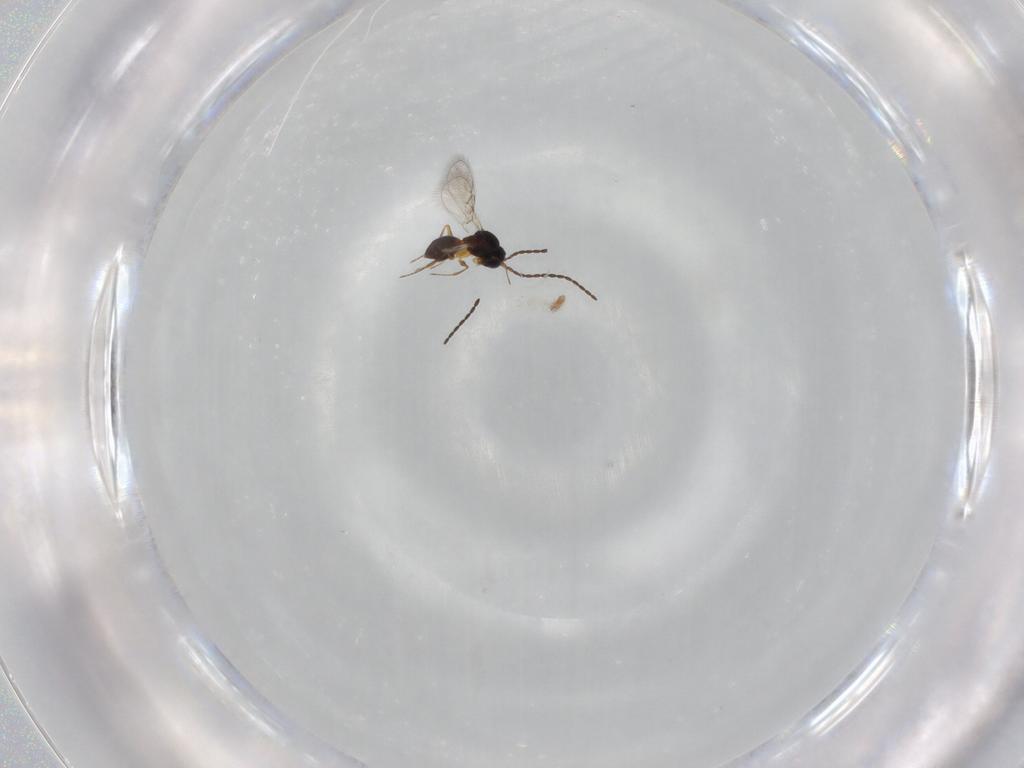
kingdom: Animalia
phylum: Arthropoda
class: Insecta
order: Hymenoptera
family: Figitidae
